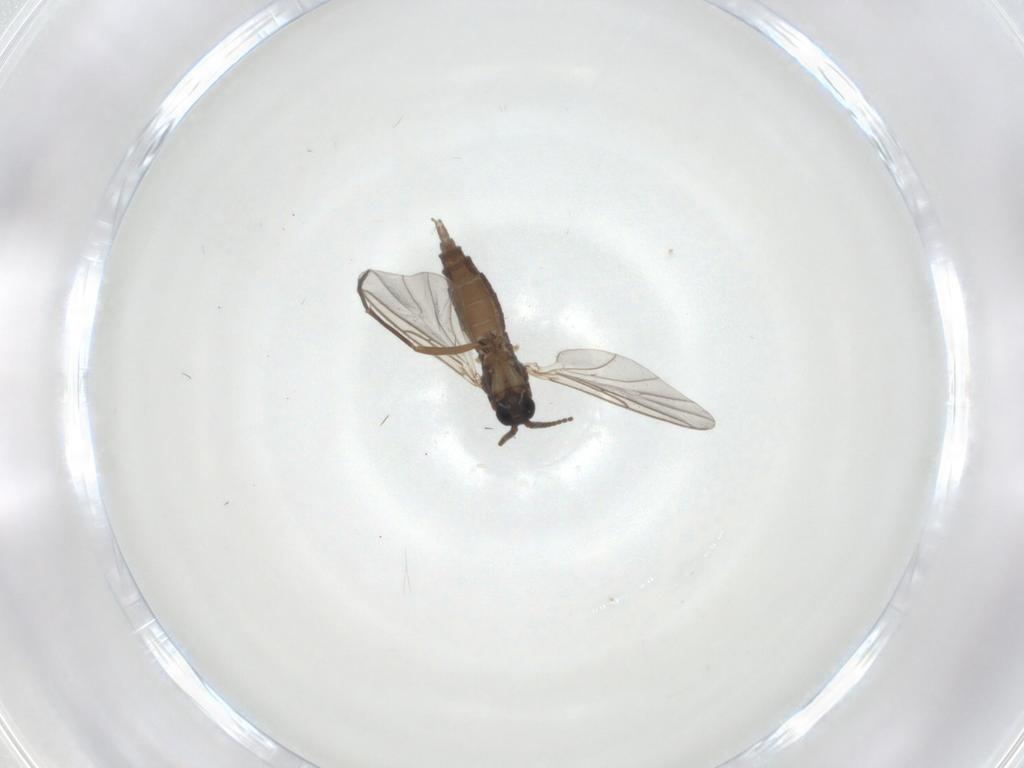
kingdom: Animalia
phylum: Arthropoda
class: Insecta
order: Diptera
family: Sciaridae
